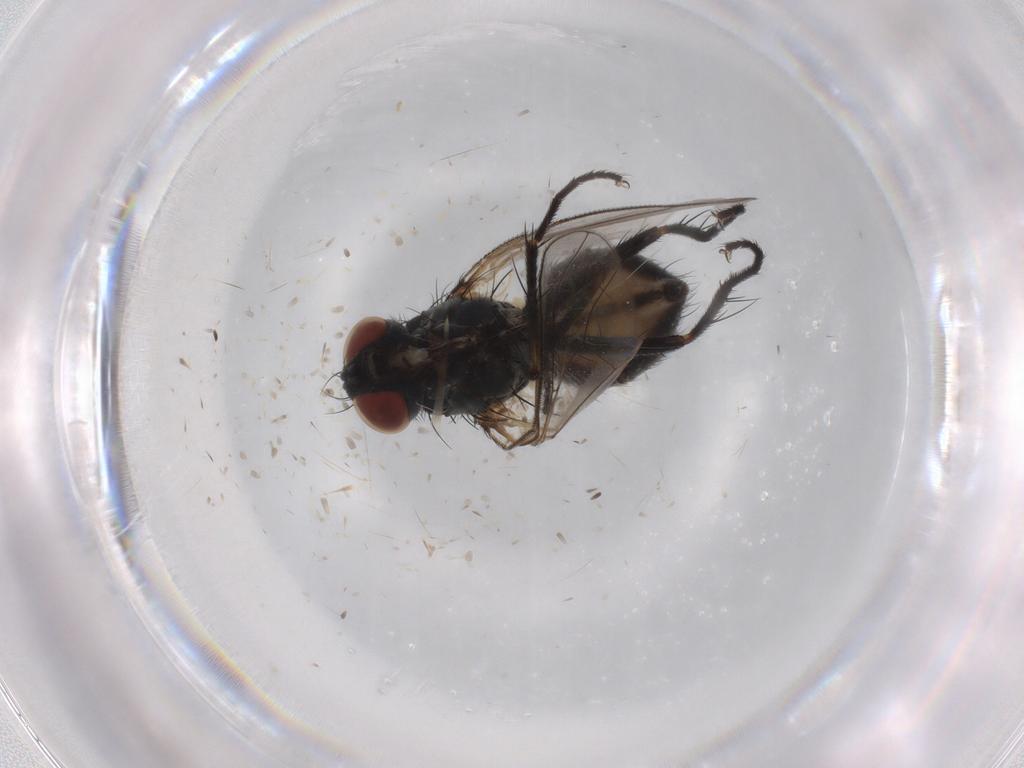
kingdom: Animalia
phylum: Arthropoda
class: Insecta
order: Diptera
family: Muscidae
